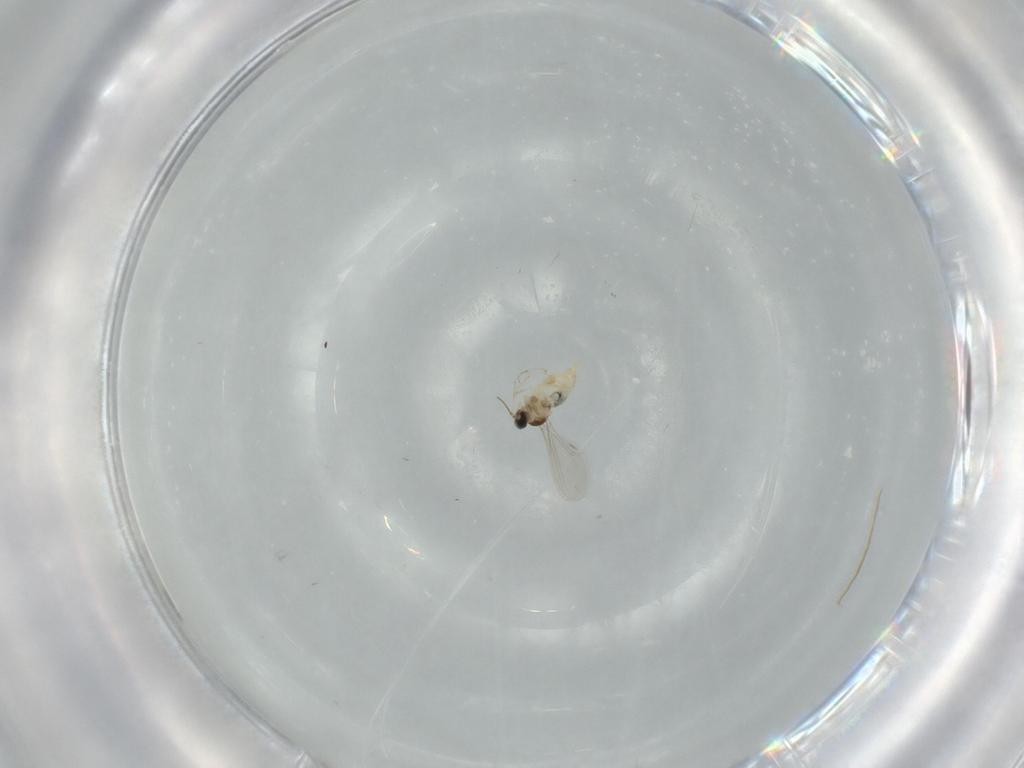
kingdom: Animalia
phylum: Arthropoda
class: Insecta
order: Diptera
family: Cecidomyiidae
